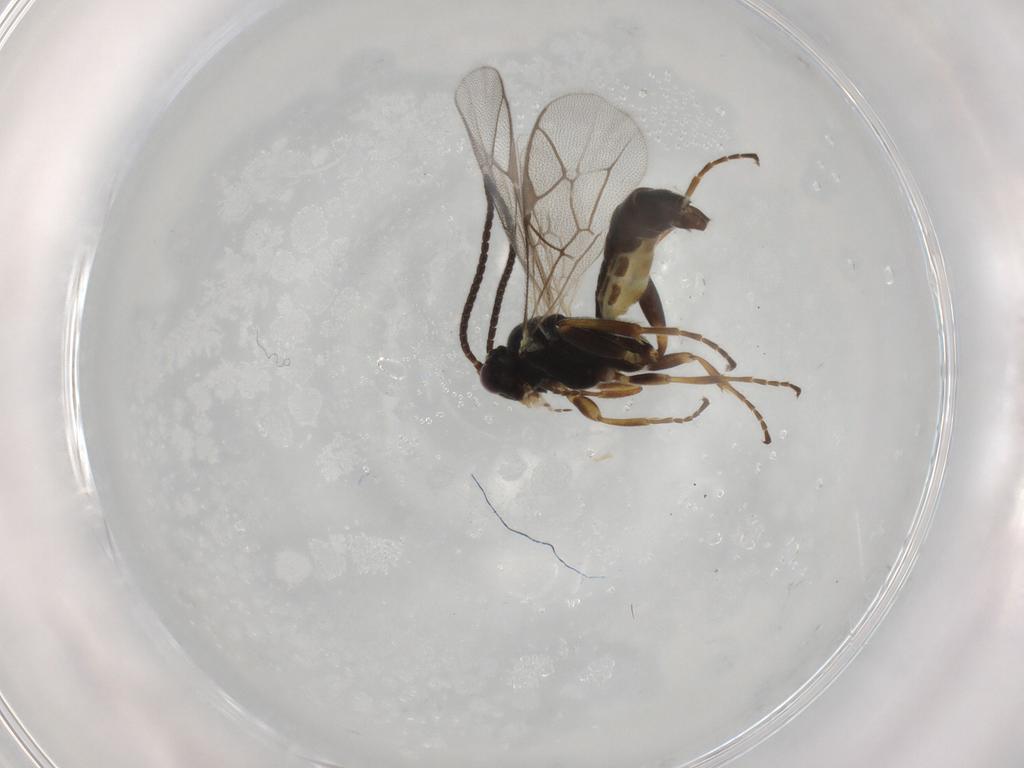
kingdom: Animalia
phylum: Arthropoda
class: Insecta
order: Hymenoptera
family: Ichneumonidae
